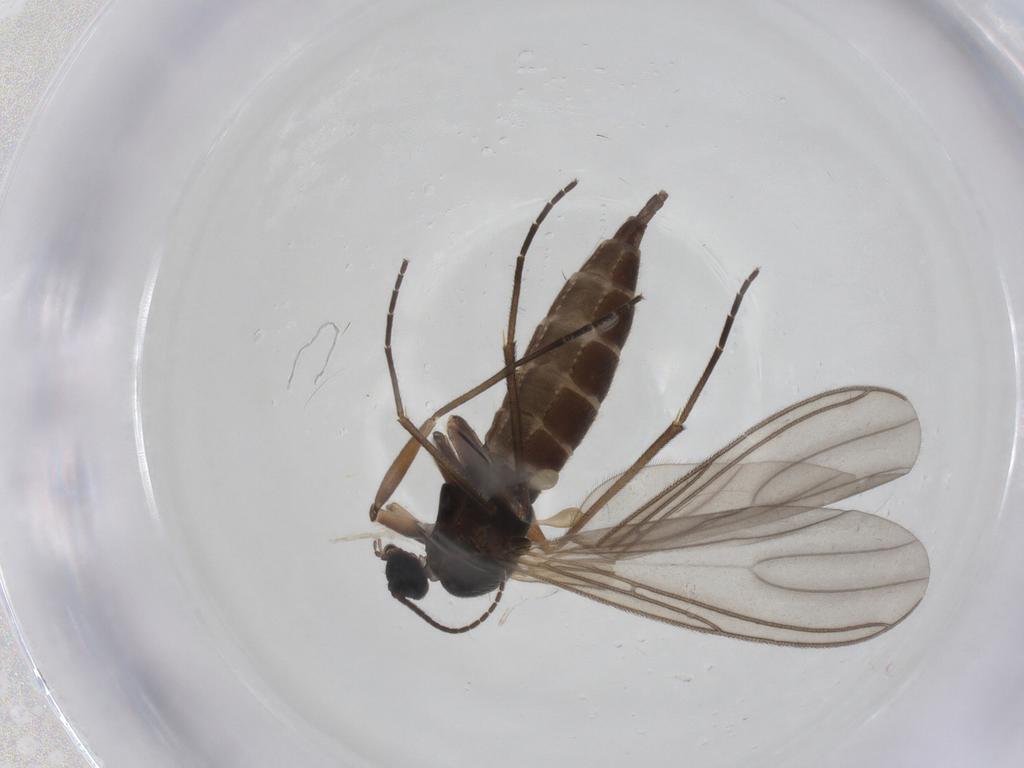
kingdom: Animalia
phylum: Arthropoda
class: Insecta
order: Diptera
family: Sciaridae
